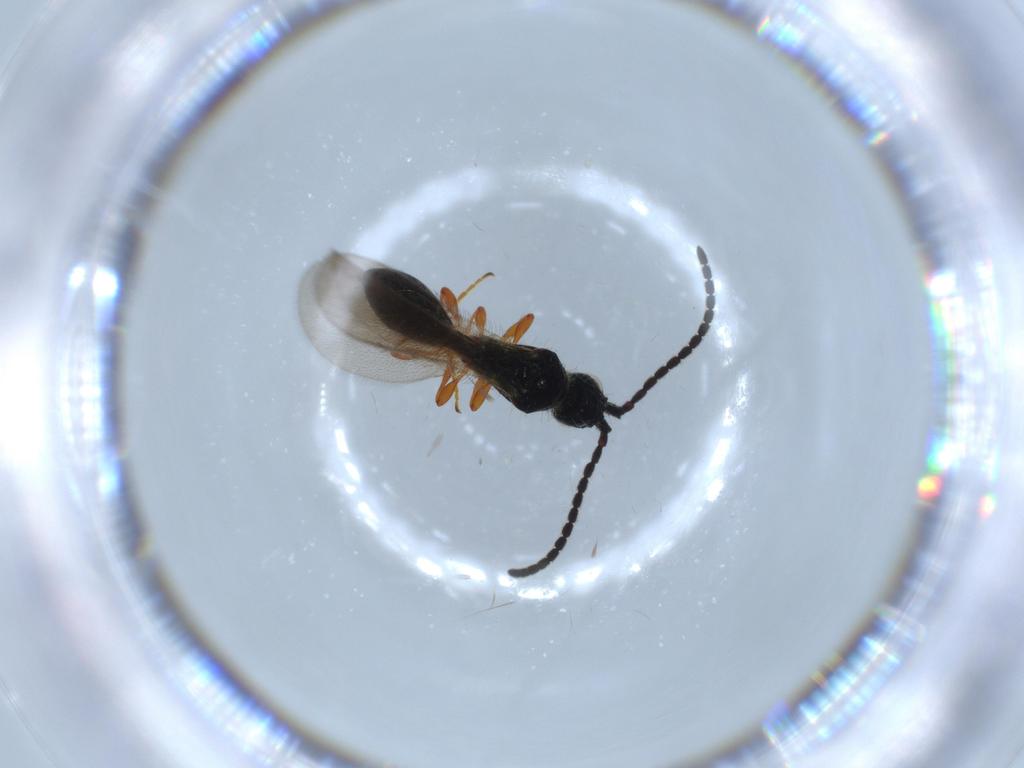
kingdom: Animalia
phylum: Arthropoda
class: Insecta
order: Hymenoptera
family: Diapriidae
